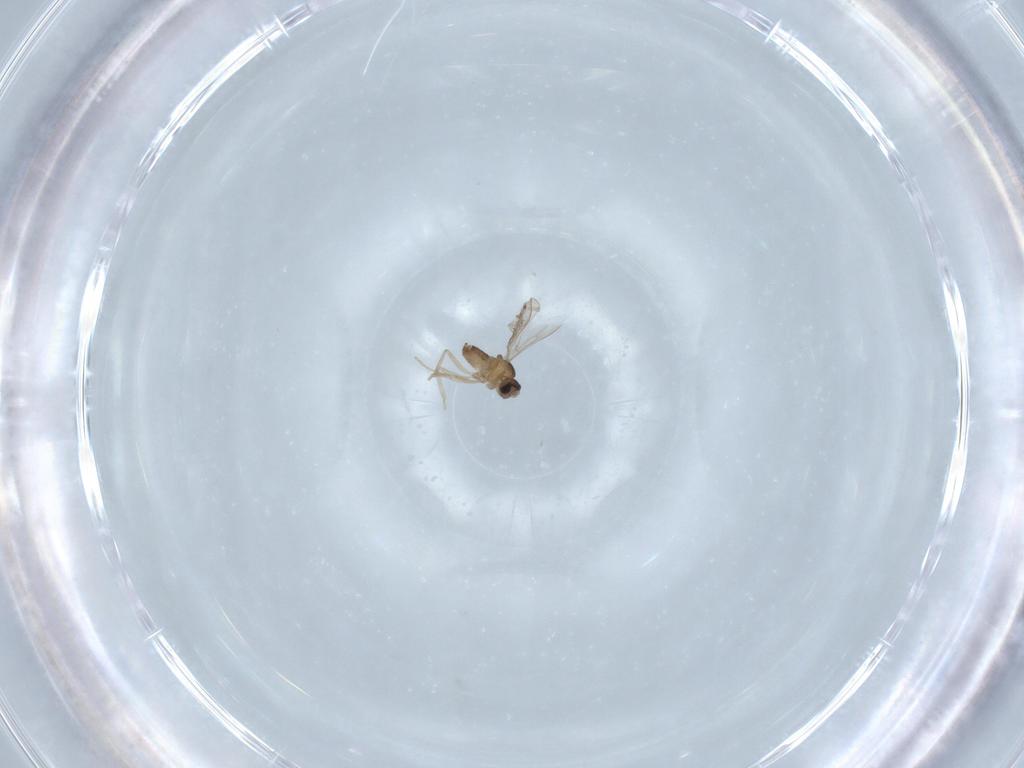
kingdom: Animalia
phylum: Arthropoda
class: Insecta
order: Diptera
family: Cecidomyiidae
